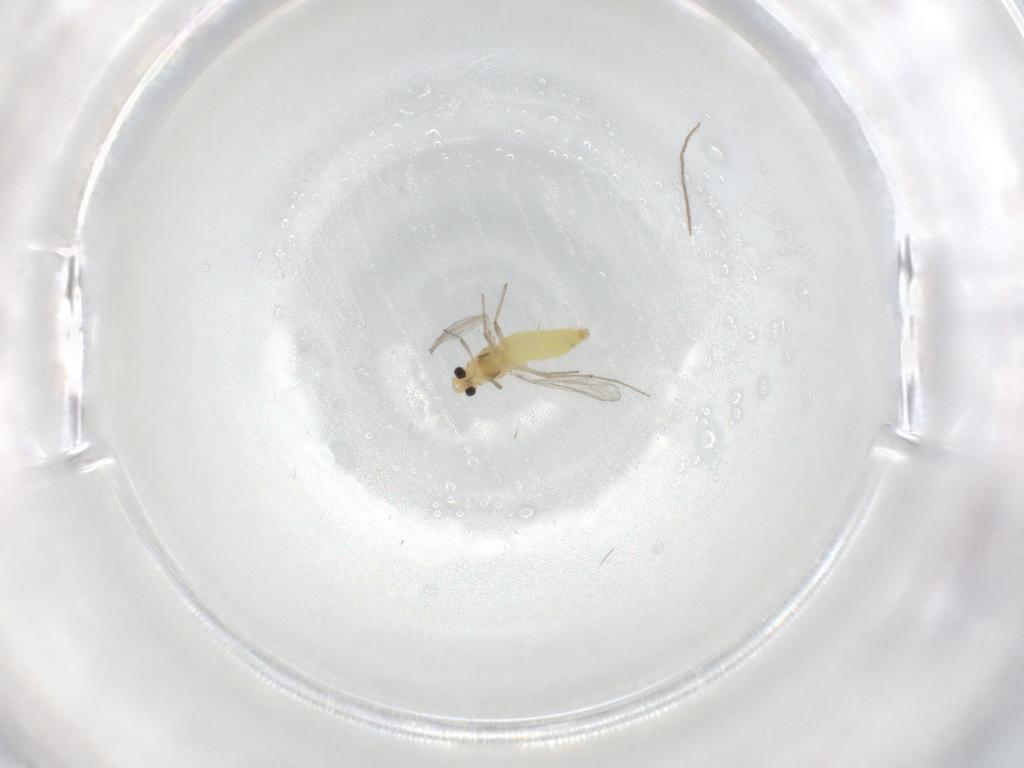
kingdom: Animalia
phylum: Arthropoda
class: Insecta
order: Diptera
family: Chironomidae
